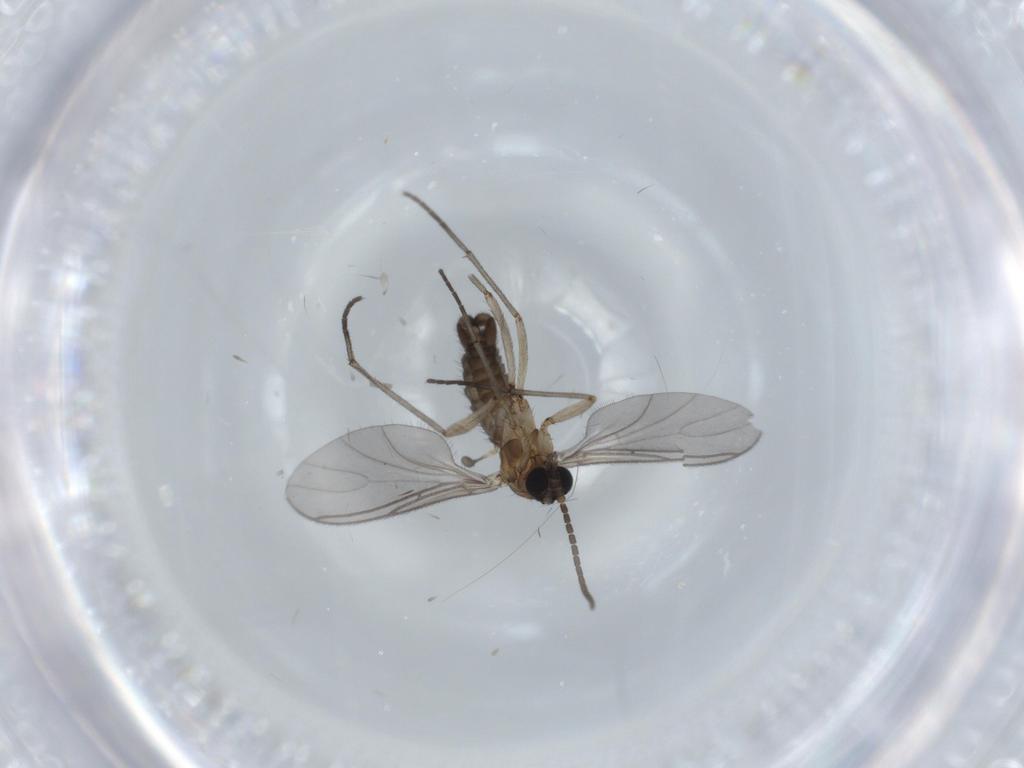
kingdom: Animalia
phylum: Arthropoda
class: Insecta
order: Diptera
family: Sciaridae
